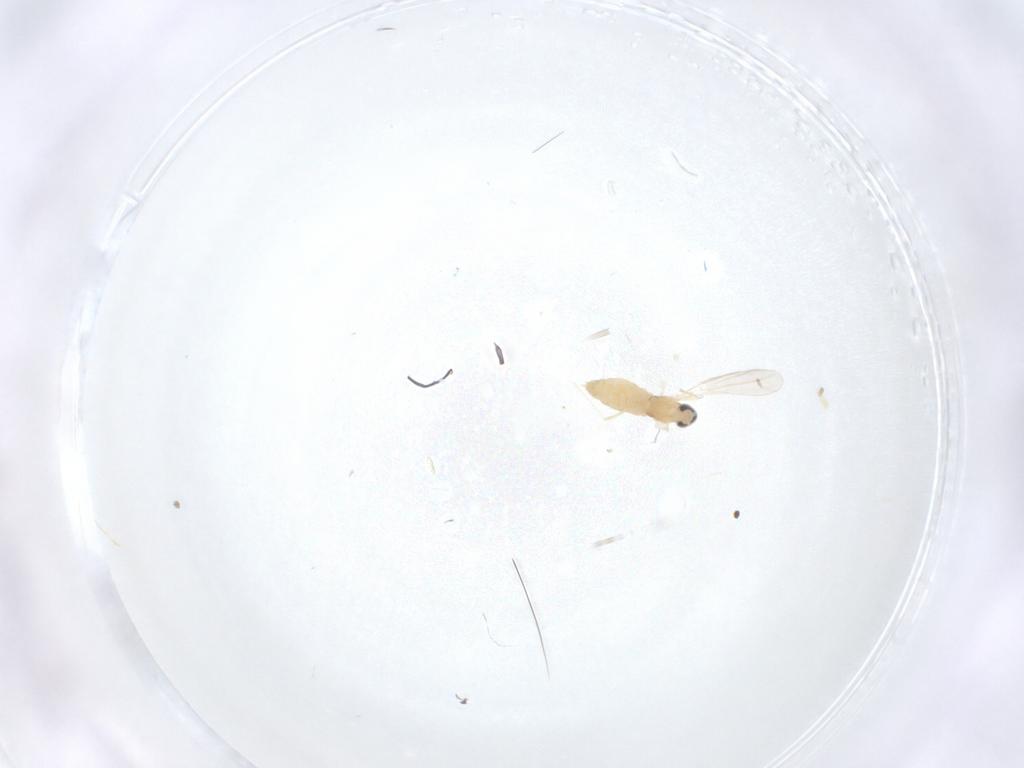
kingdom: Animalia
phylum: Arthropoda
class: Insecta
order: Diptera
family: Cecidomyiidae
